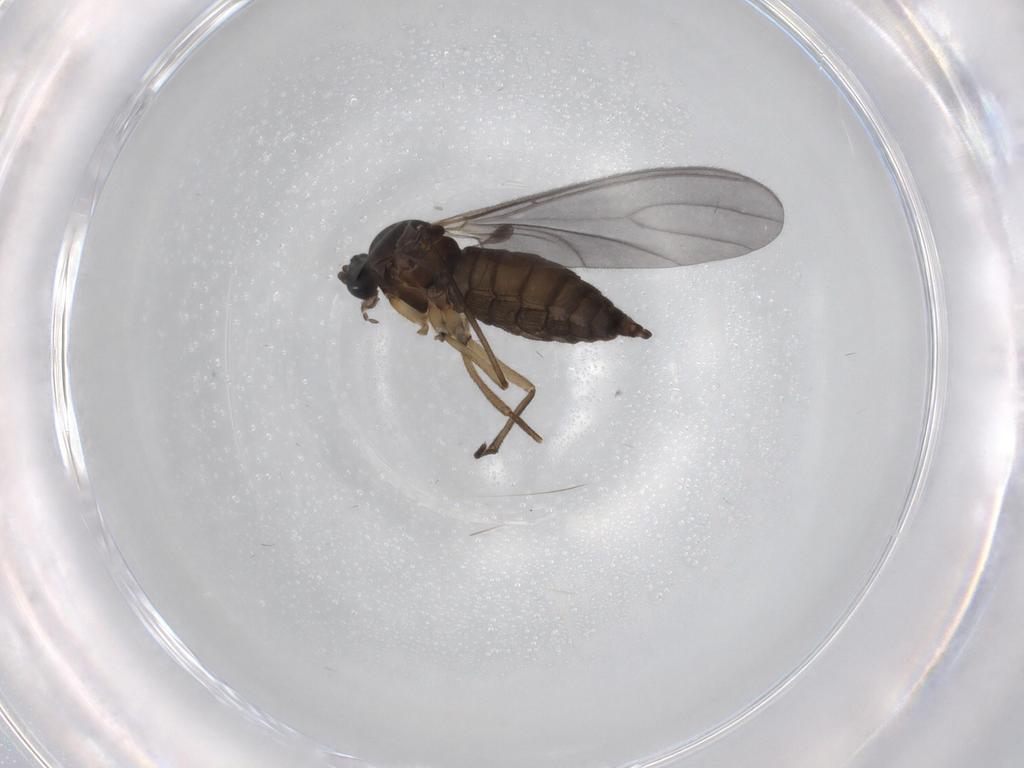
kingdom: Animalia
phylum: Arthropoda
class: Insecta
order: Diptera
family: Sciaridae
